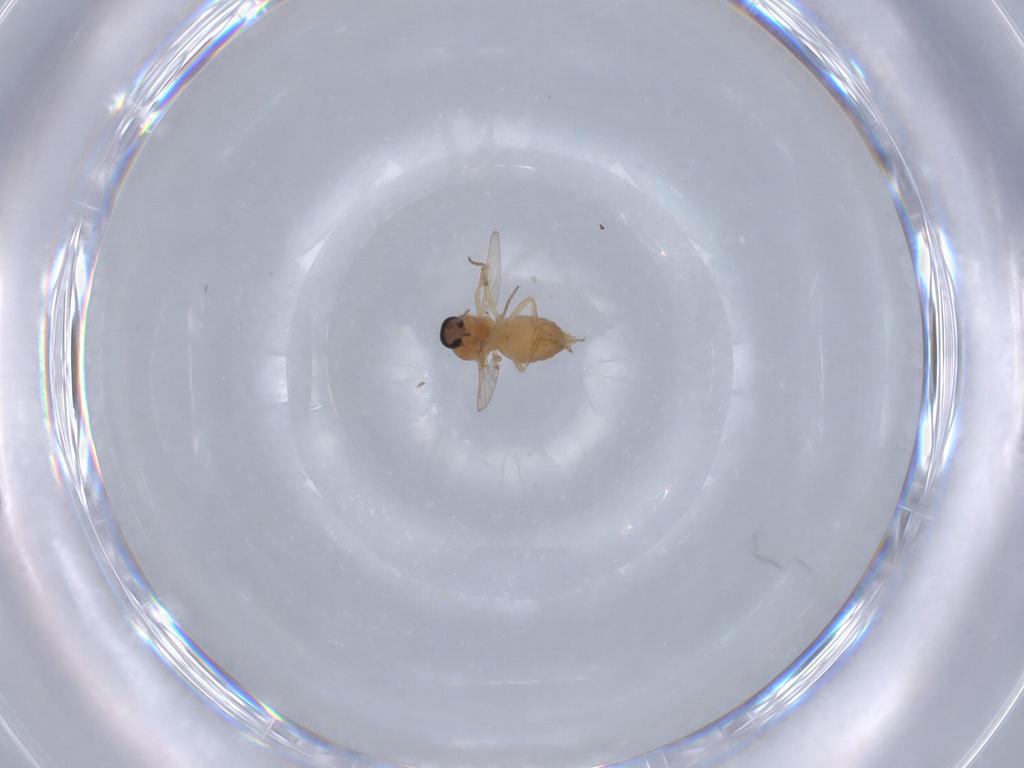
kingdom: Animalia
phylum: Arthropoda
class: Insecta
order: Diptera
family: Ceratopogonidae
